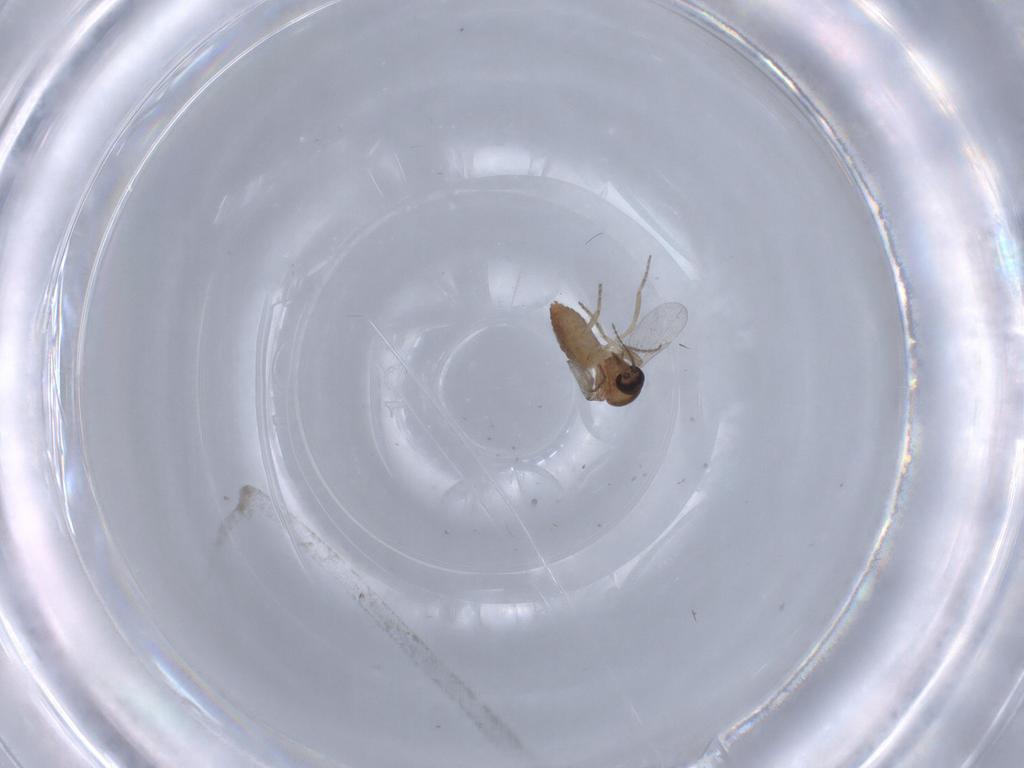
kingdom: Animalia
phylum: Arthropoda
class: Insecta
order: Diptera
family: Ceratopogonidae
